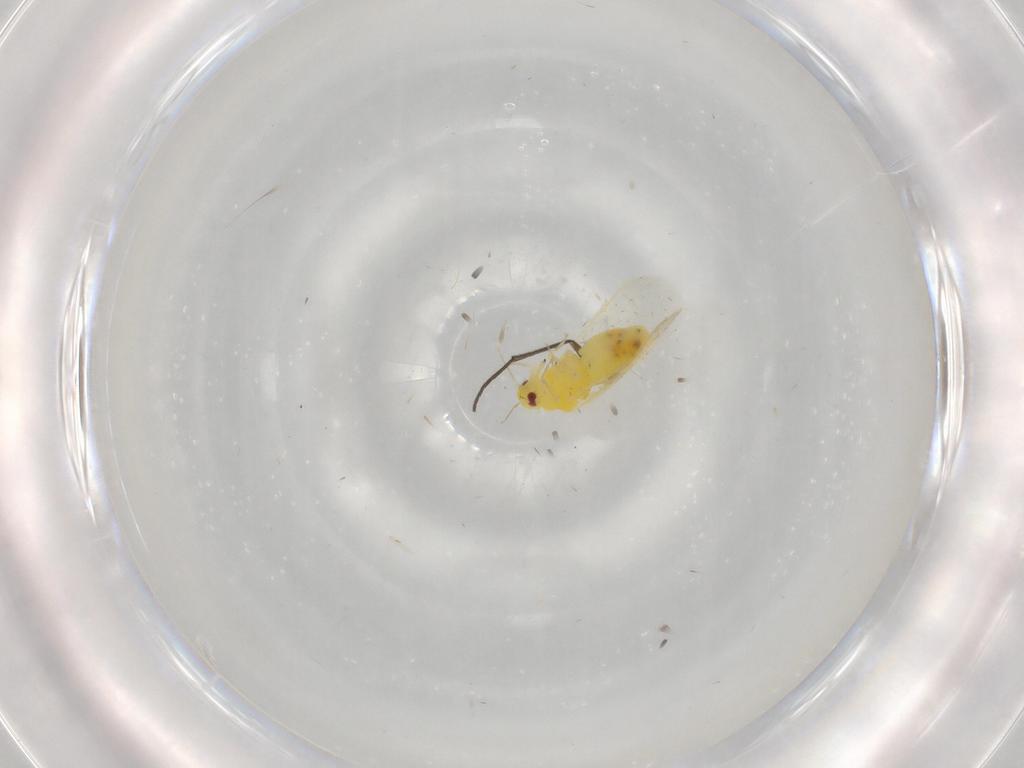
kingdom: Animalia
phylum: Arthropoda
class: Insecta
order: Hemiptera
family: Aleyrodidae
